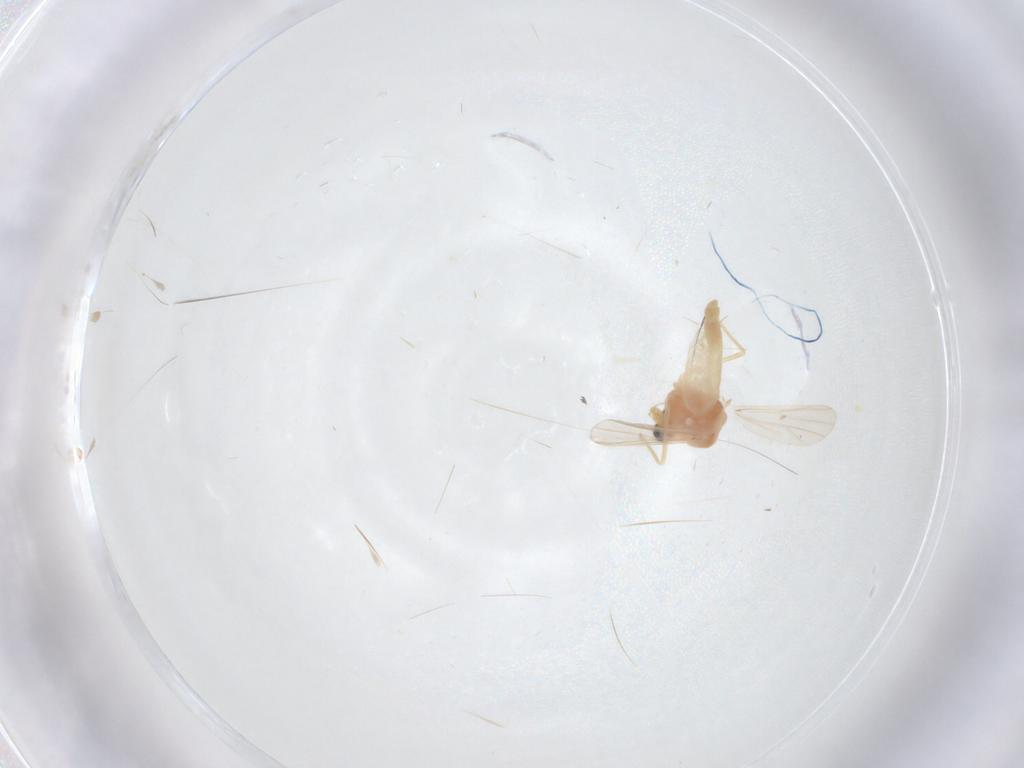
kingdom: Animalia
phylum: Arthropoda
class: Insecta
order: Diptera
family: Chironomidae
